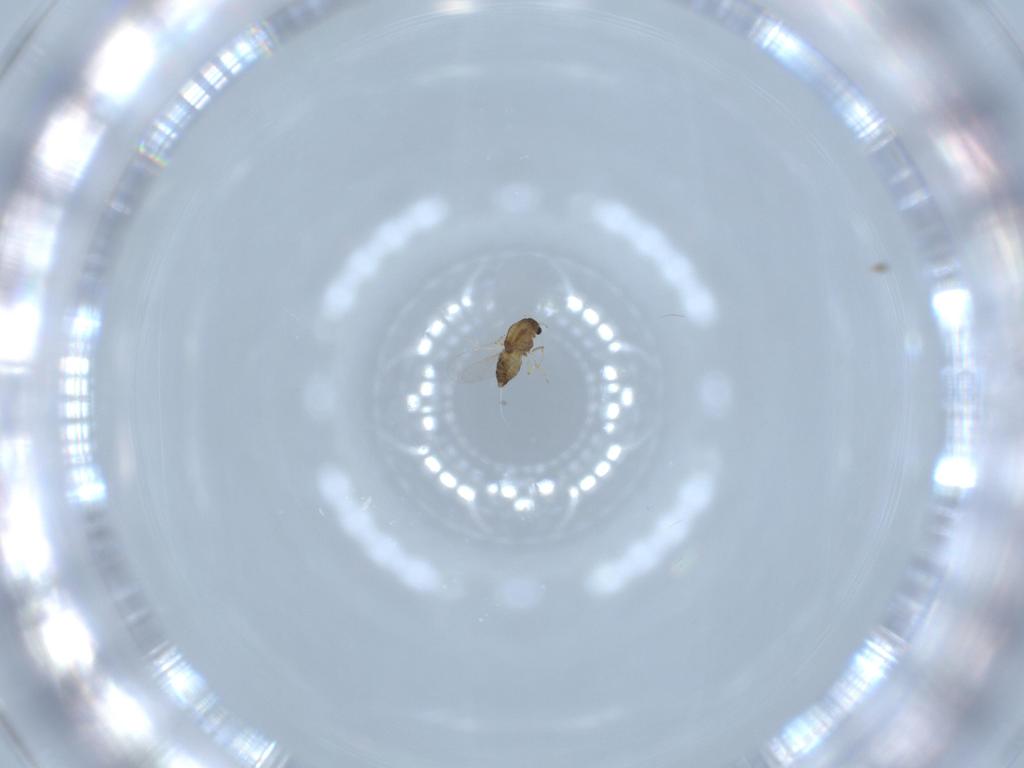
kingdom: Animalia
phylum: Arthropoda
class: Insecta
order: Diptera
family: Chironomidae
